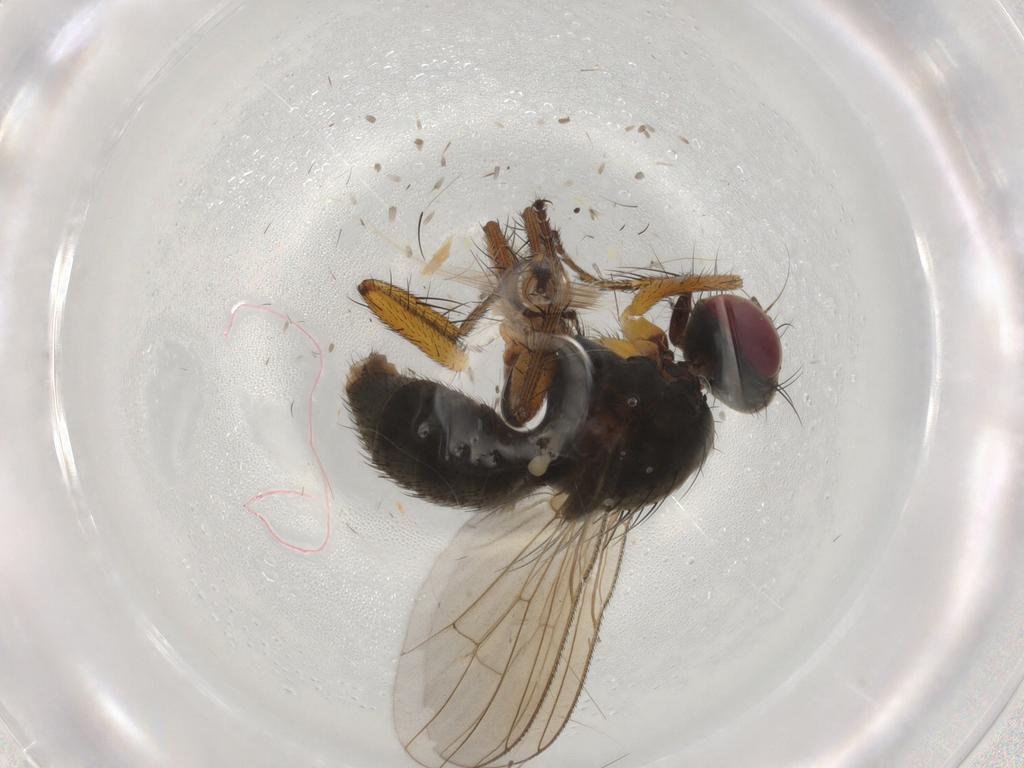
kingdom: Animalia
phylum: Arthropoda
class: Insecta
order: Diptera
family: Muscidae
